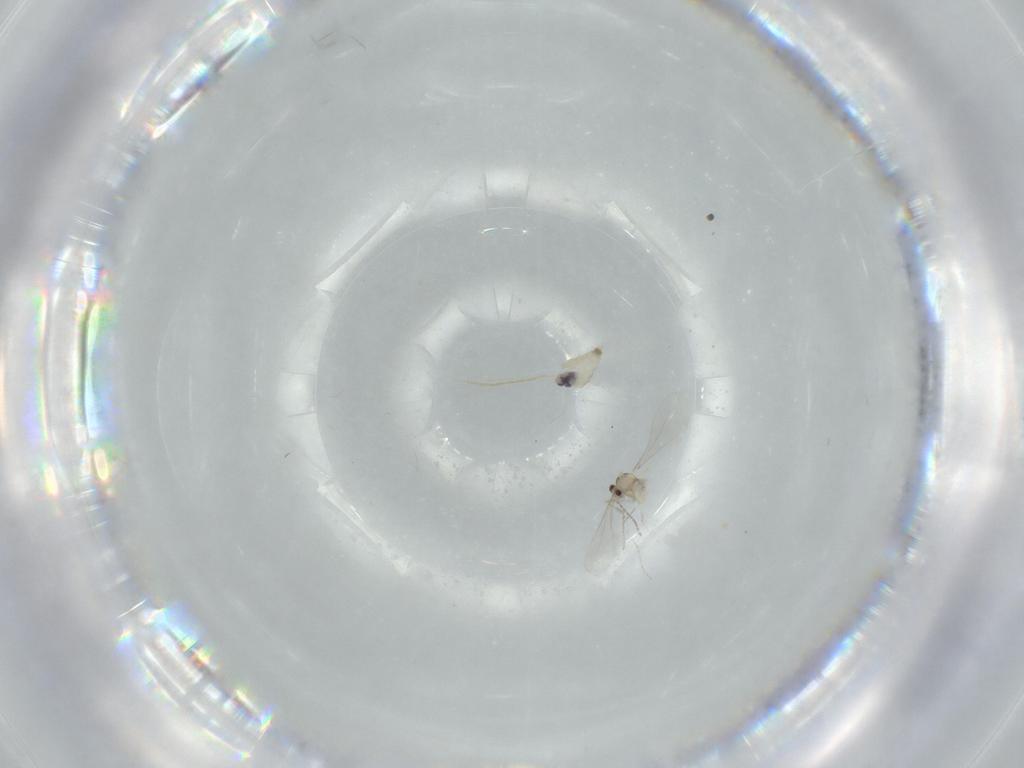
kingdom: Animalia
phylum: Arthropoda
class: Insecta
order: Diptera
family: Cecidomyiidae
